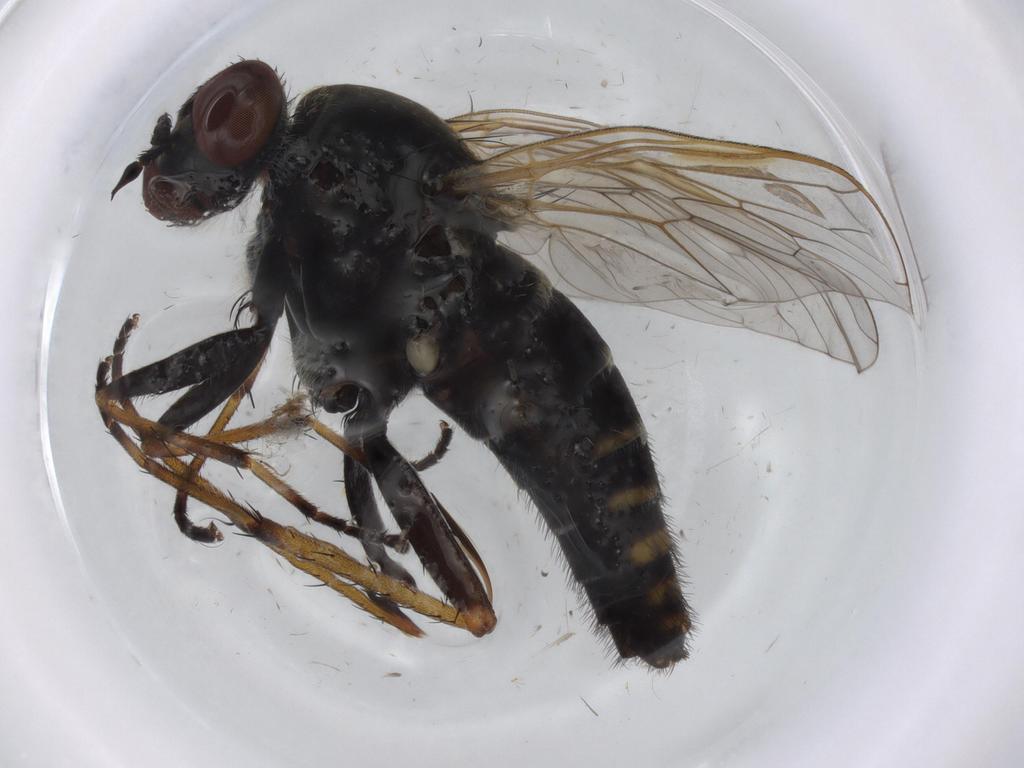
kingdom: Animalia
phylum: Arthropoda
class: Insecta
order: Diptera
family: Therevidae
